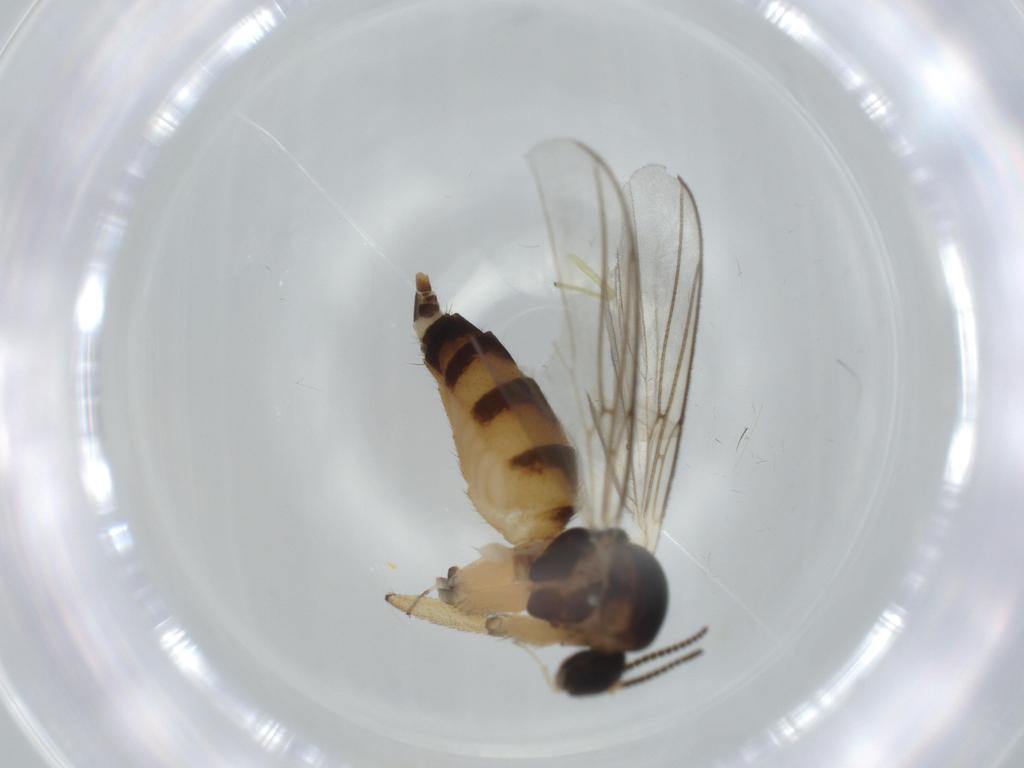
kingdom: Animalia
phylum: Arthropoda
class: Insecta
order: Diptera
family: Mycetophilidae
